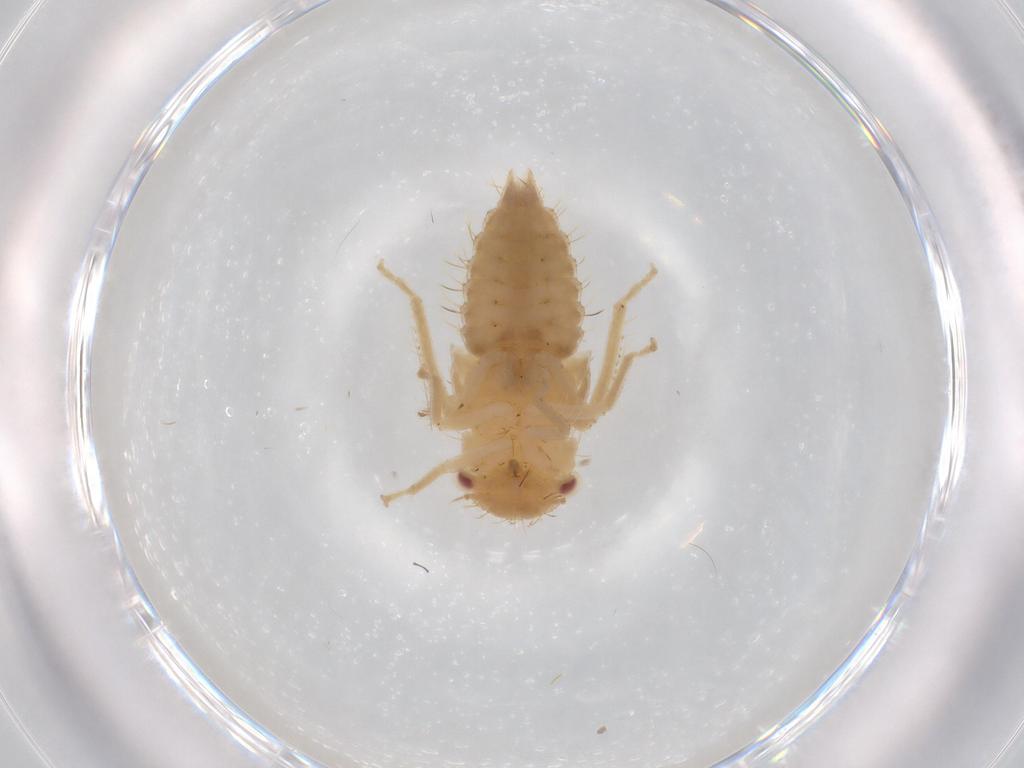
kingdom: Animalia
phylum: Arthropoda
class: Insecta
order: Hemiptera
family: Derbidae
